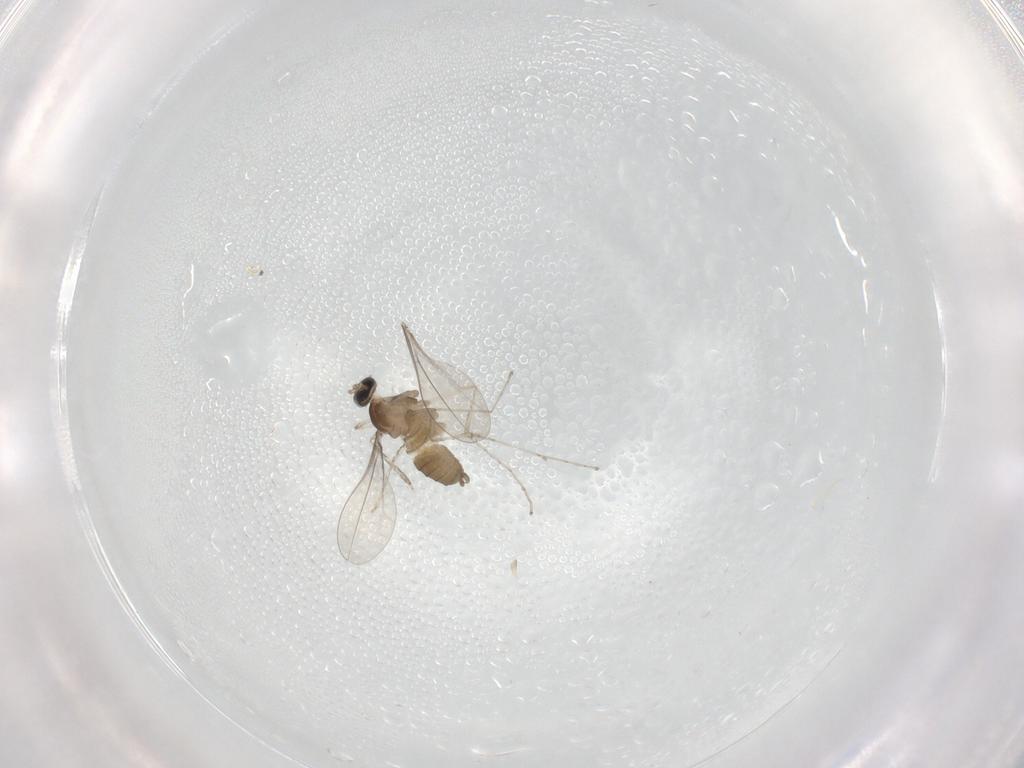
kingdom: Animalia
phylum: Arthropoda
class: Insecta
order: Diptera
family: Cecidomyiidae
